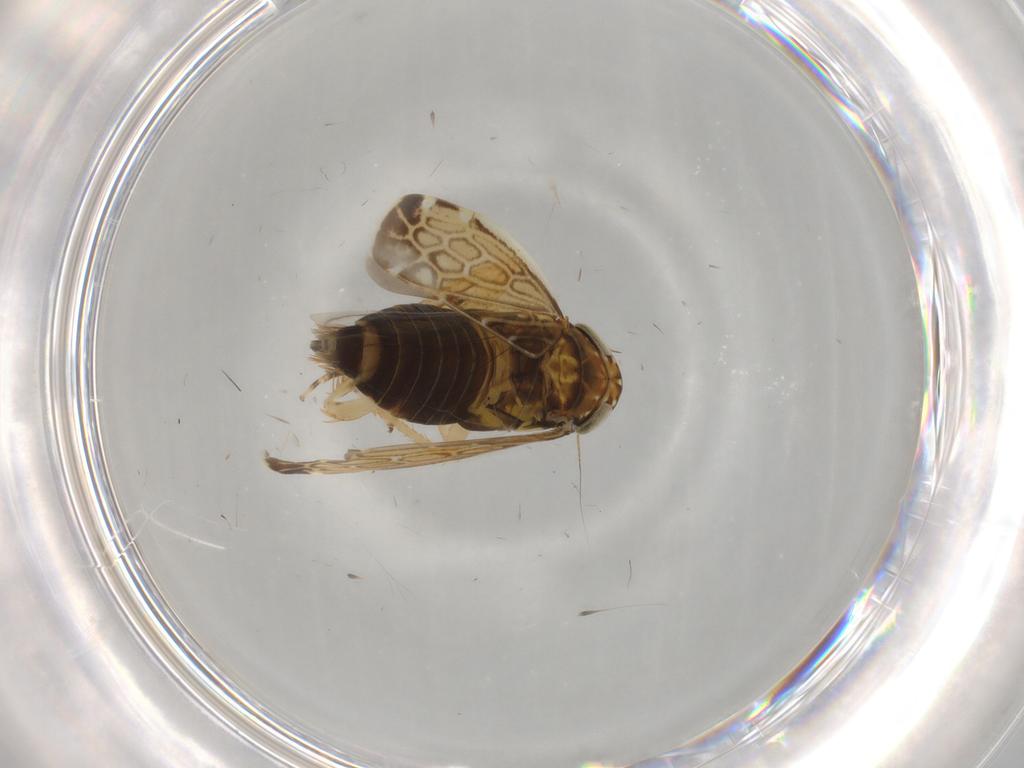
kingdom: Animalia
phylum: Arthropoda
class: Insecta
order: Hemiptera
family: Cicadellidae
